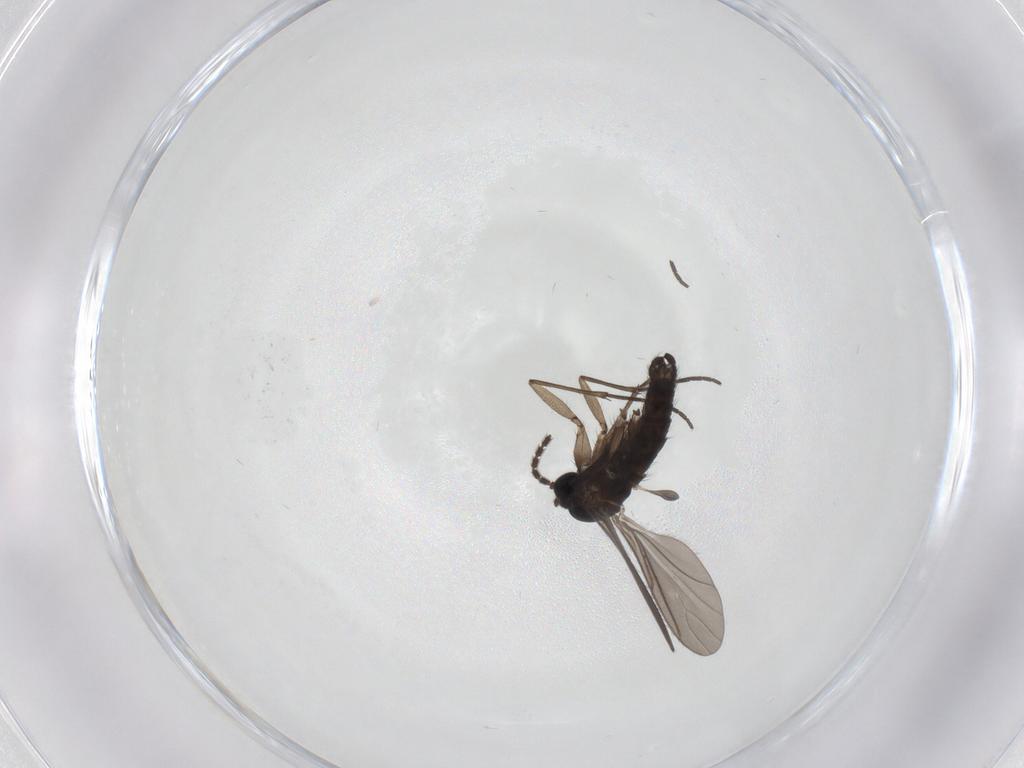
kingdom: Animalia
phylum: Arthropoda
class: Insecta
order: Diptera
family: Sciaridae
